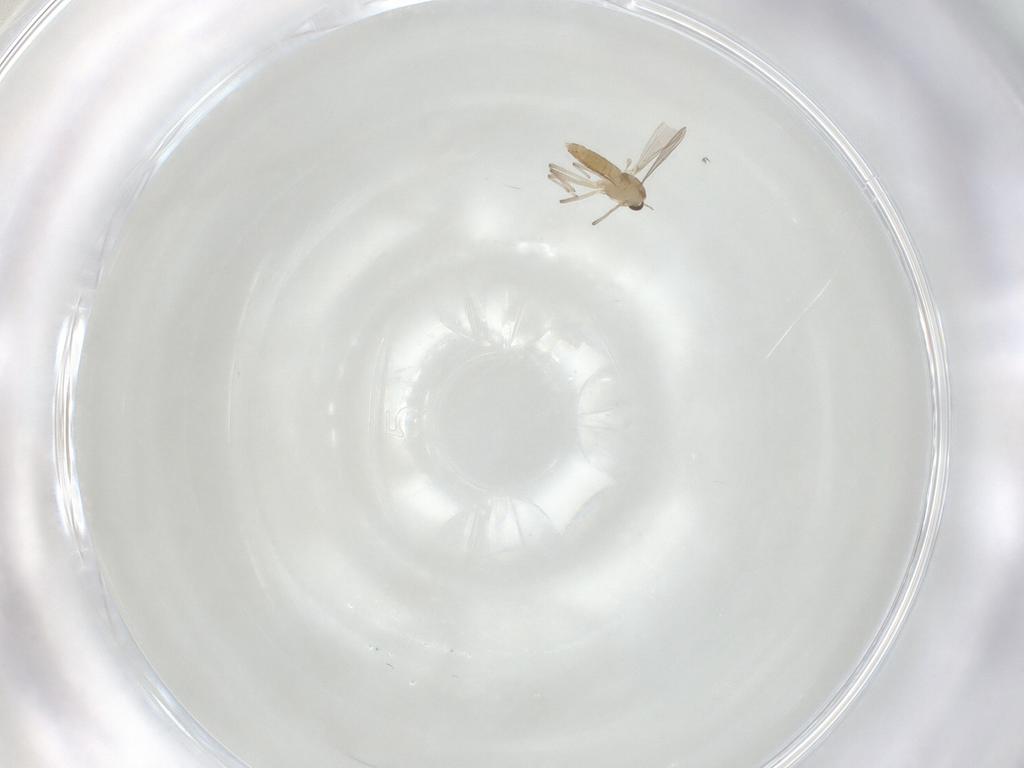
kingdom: Animalia
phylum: Arthropoda
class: Insecta
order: Diptera
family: Chironomidae
